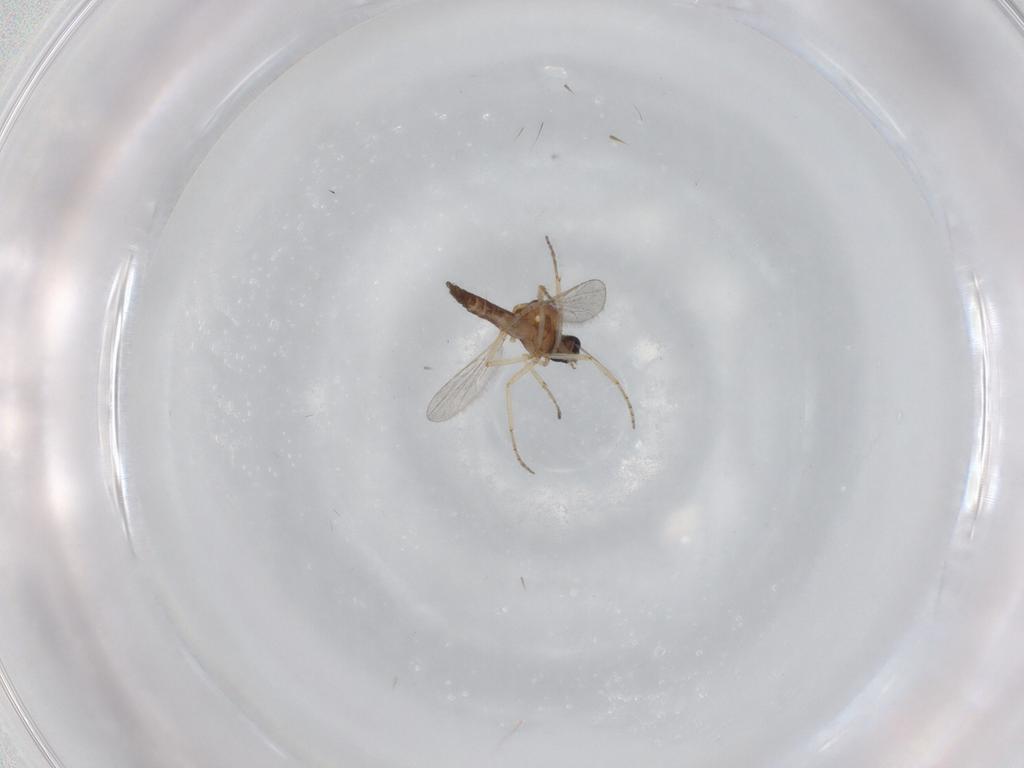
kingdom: Animalia
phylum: Arthropoda
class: Insecta
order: Diptera
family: Ceratopogonidae
